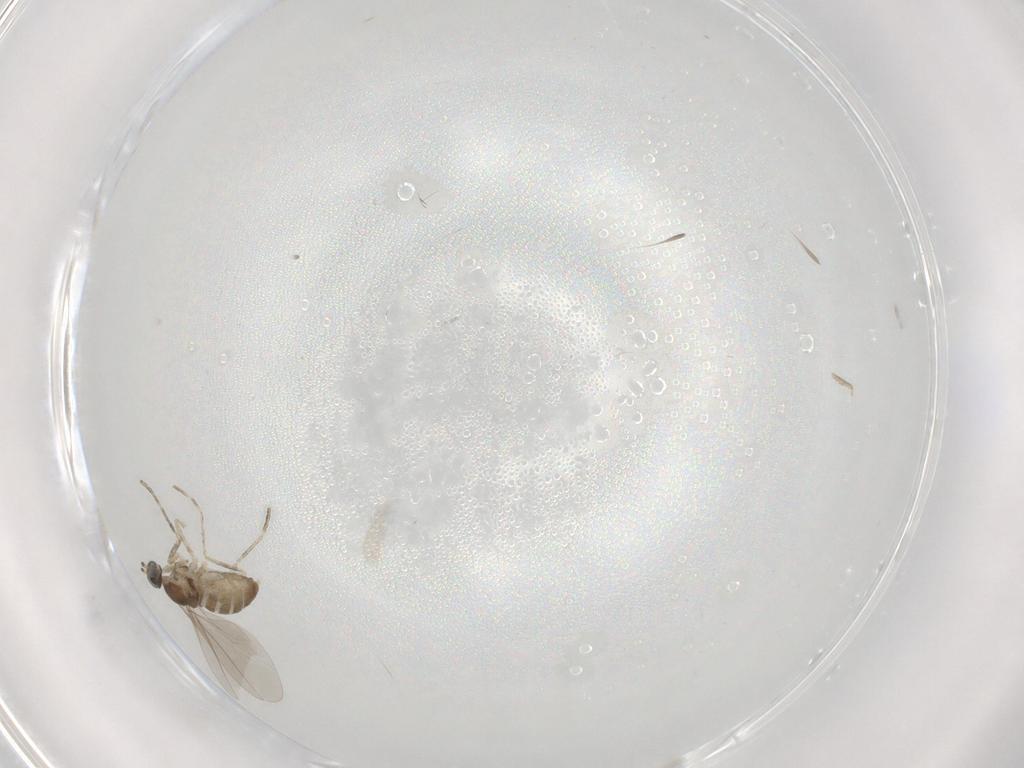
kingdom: Animalia
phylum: Arthropoda
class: Insecta
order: Diptera
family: Cecidomyiidae
